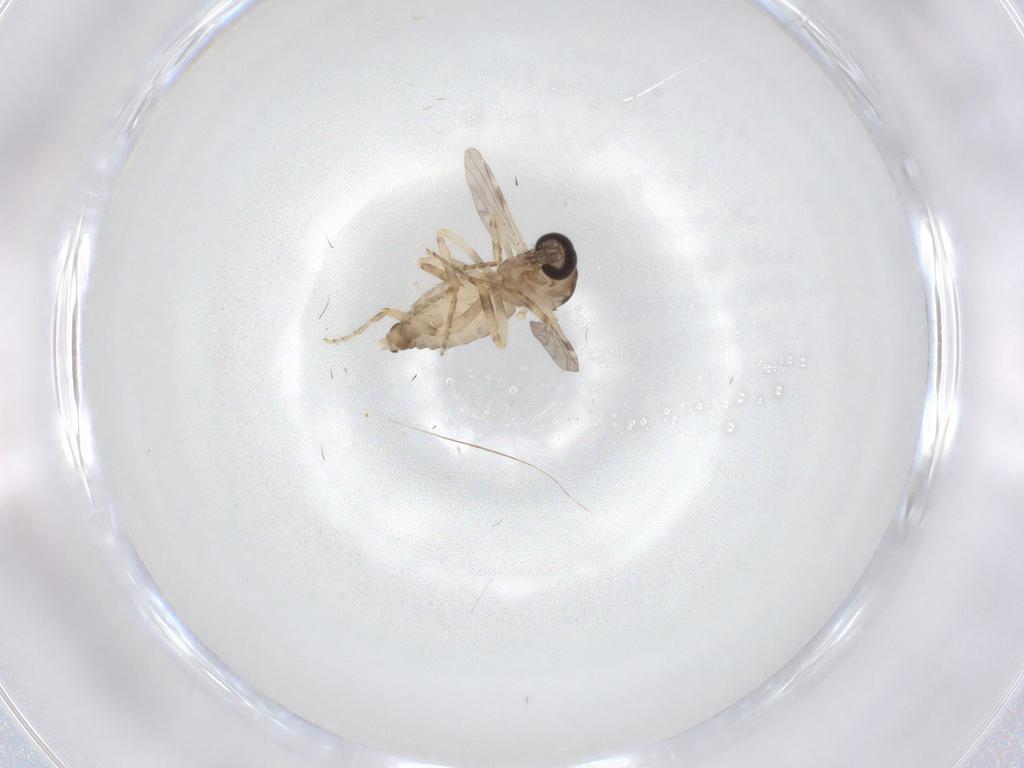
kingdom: Animalia
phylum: Arthropoda
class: Insecta
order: Diptera
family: Ceratopogonidae
